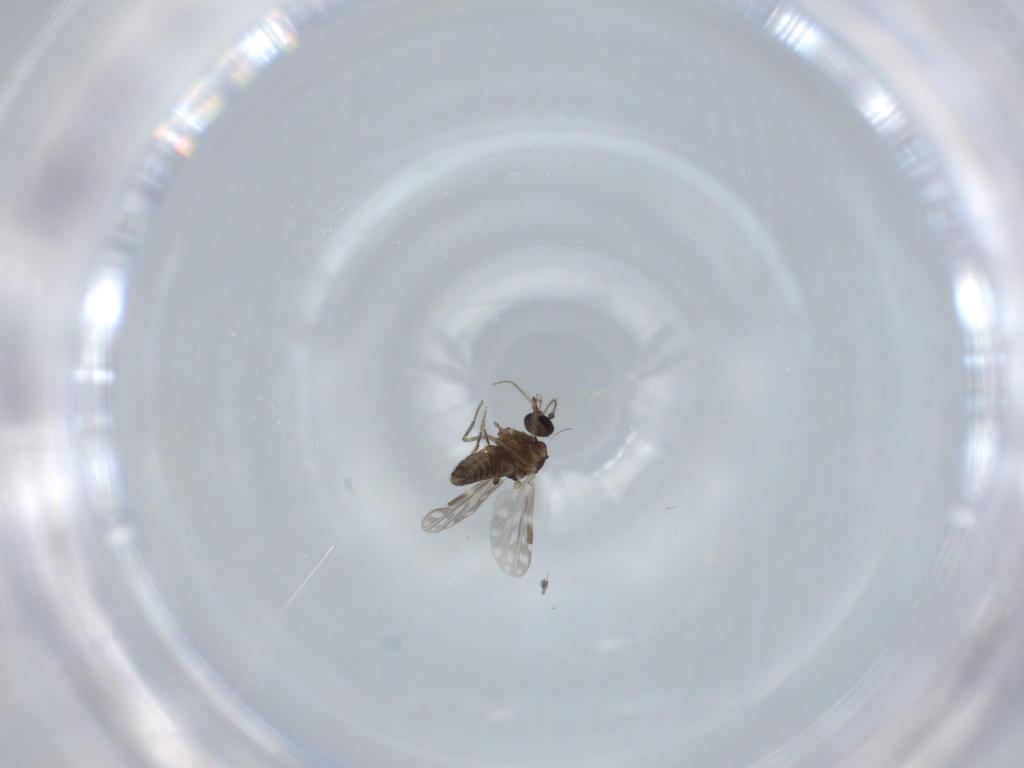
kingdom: Animalia
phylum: Arthropoda
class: Insecta
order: Diptera
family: Ceratopogonidae
